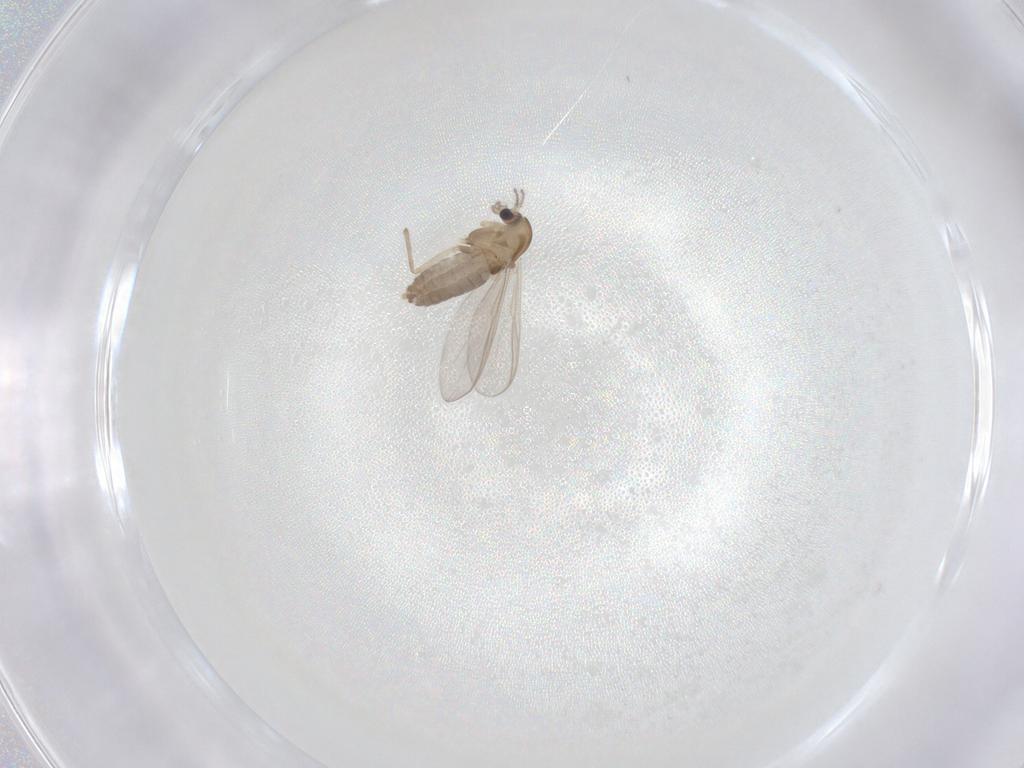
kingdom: Animalia
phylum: Arthropoda
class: Insecta
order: Diptera
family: Chironomidae
